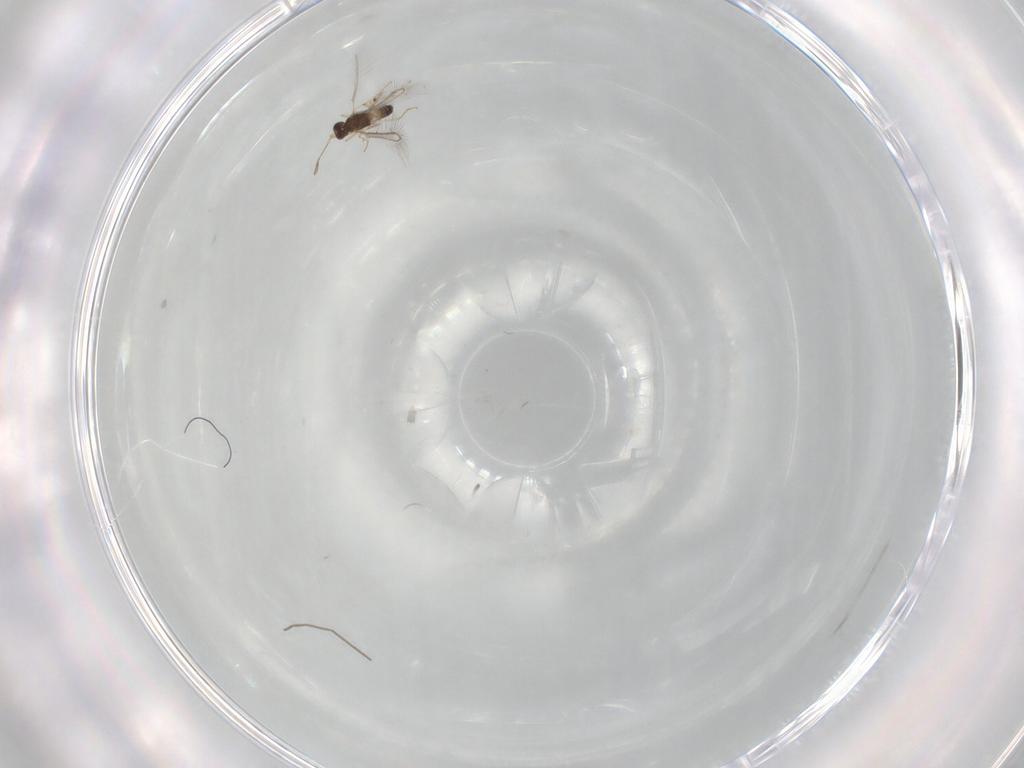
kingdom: Animalia
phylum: Arthropoda
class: Insecta
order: Hymenoptera
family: Mymaridae
